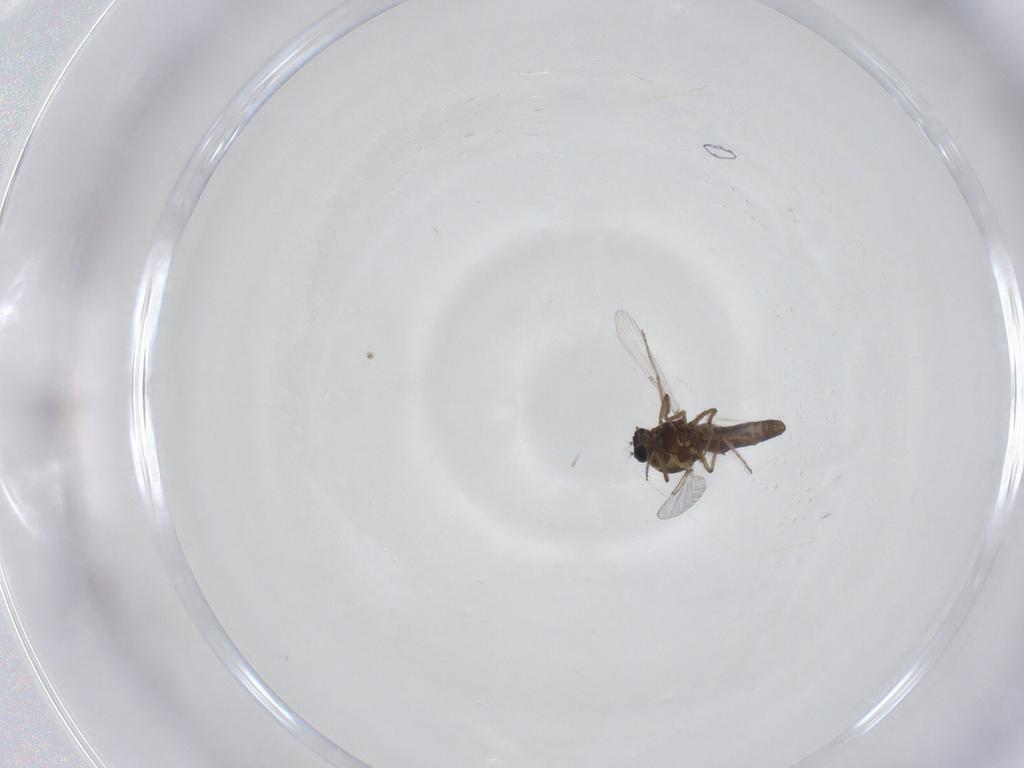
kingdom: Animalia
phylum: Arthropoda
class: Insecta
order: Diptera
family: Ceratopogonidae
